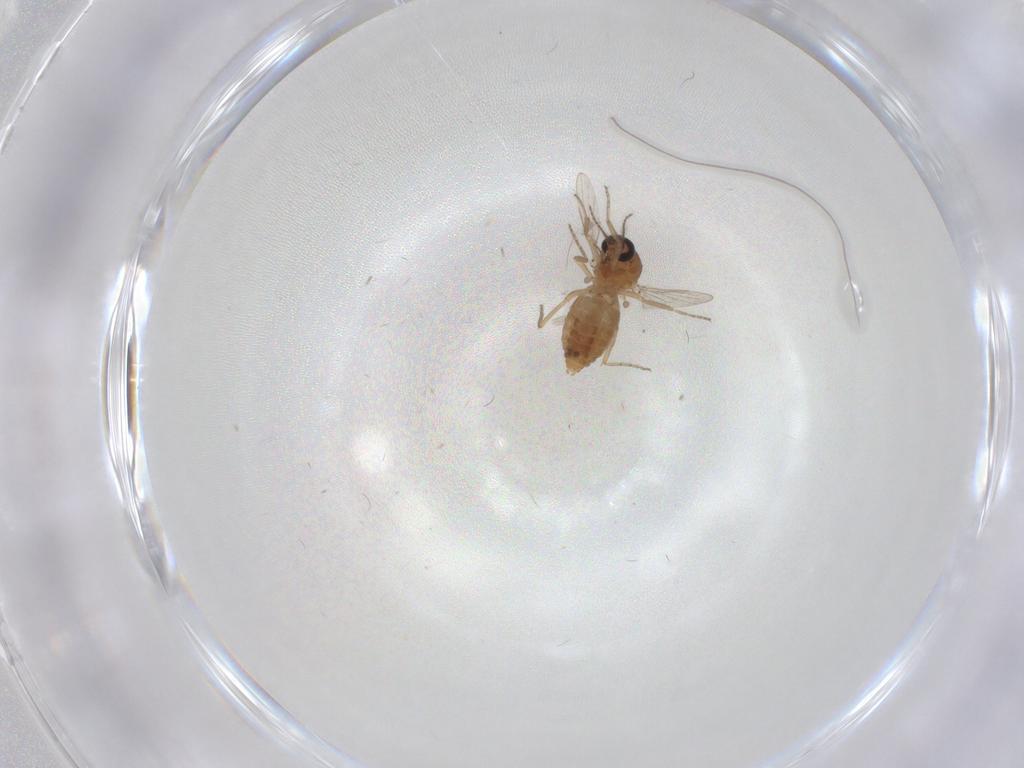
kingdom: Animalia
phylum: Arthropoda
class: Insecta
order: Diptera
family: Ceratopogonidae
